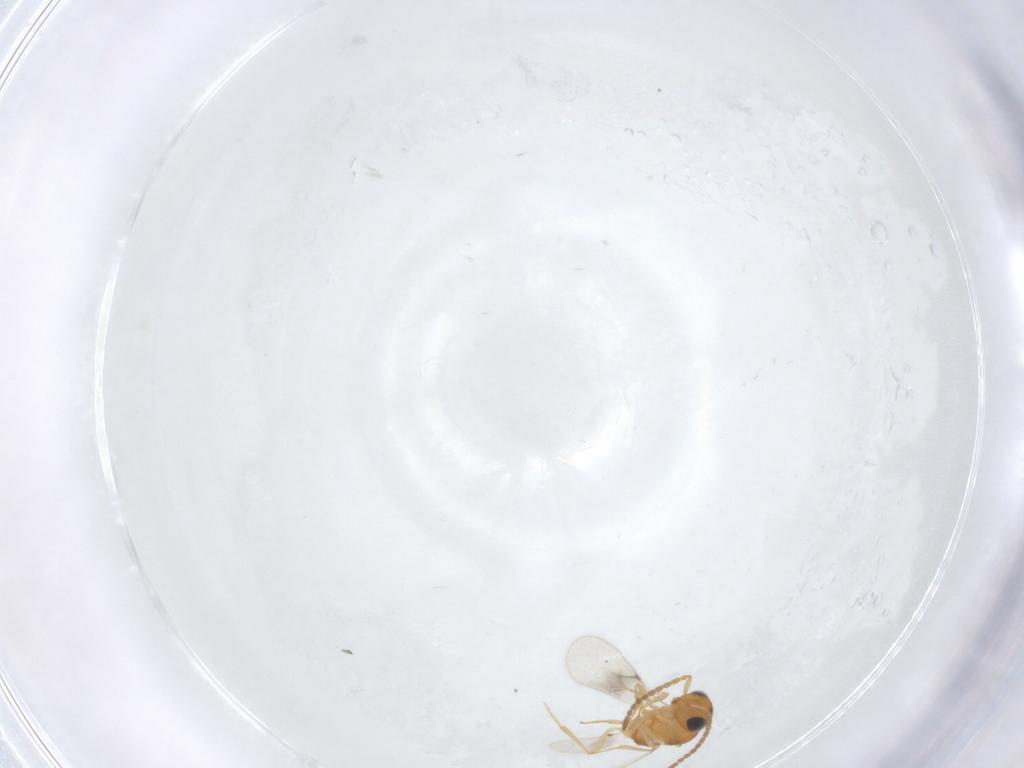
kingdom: Animalia
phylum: Arthropoda
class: Insecta
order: Hymenoptera
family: Scelionidae
